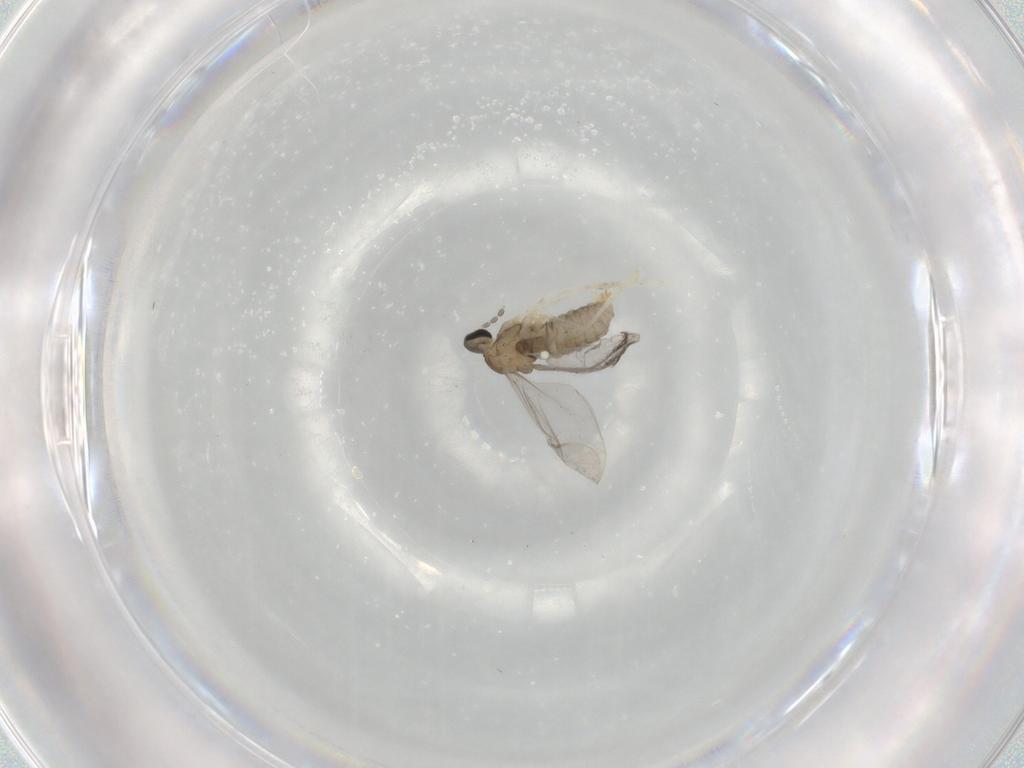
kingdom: Animalia
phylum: Arthropoda
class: Insecta
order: Diptera
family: Cecidomyiidae
